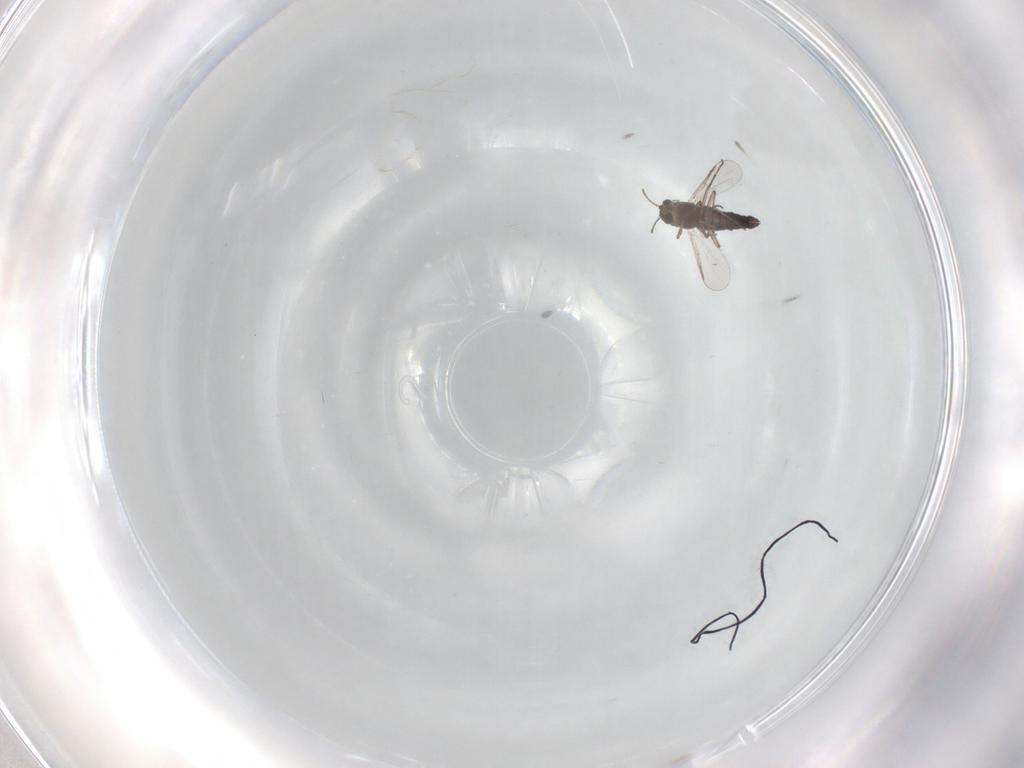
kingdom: Animalia
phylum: Arthropoda
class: Insecta
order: Diptera
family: Chironomidae
